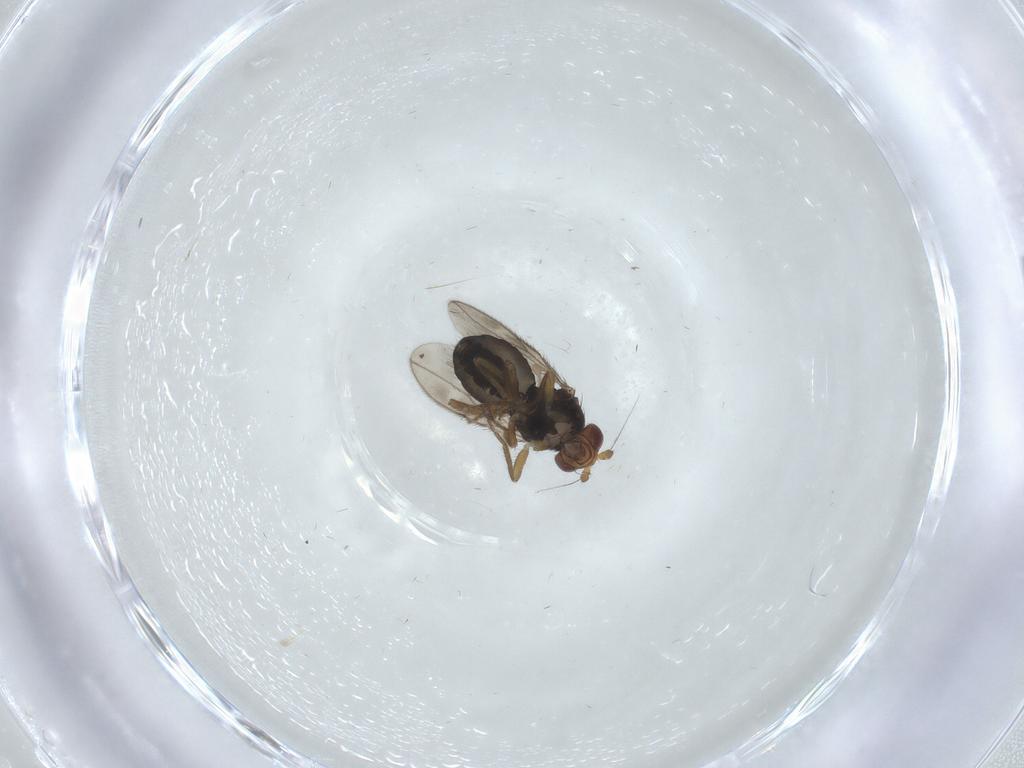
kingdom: Animalia
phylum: Arthropoda
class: Insecta
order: Diptera
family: Sphaeroceridae
